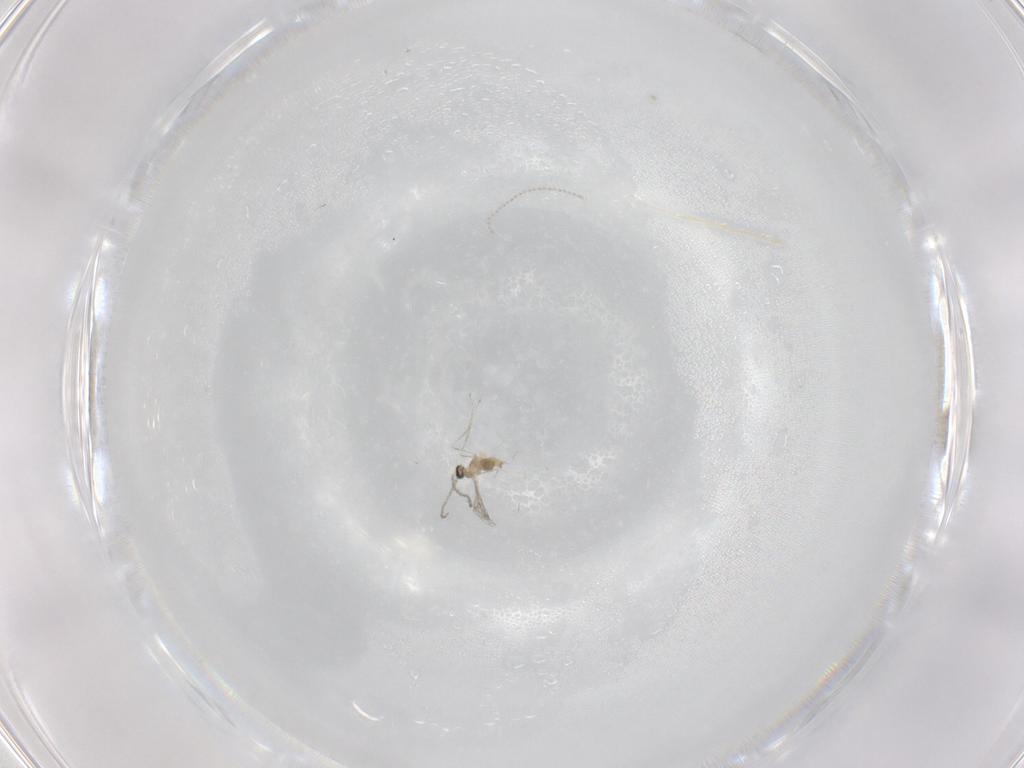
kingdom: Animalia
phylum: Arthropoda
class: Insecta
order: Diptera
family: Cecidomyiidae
